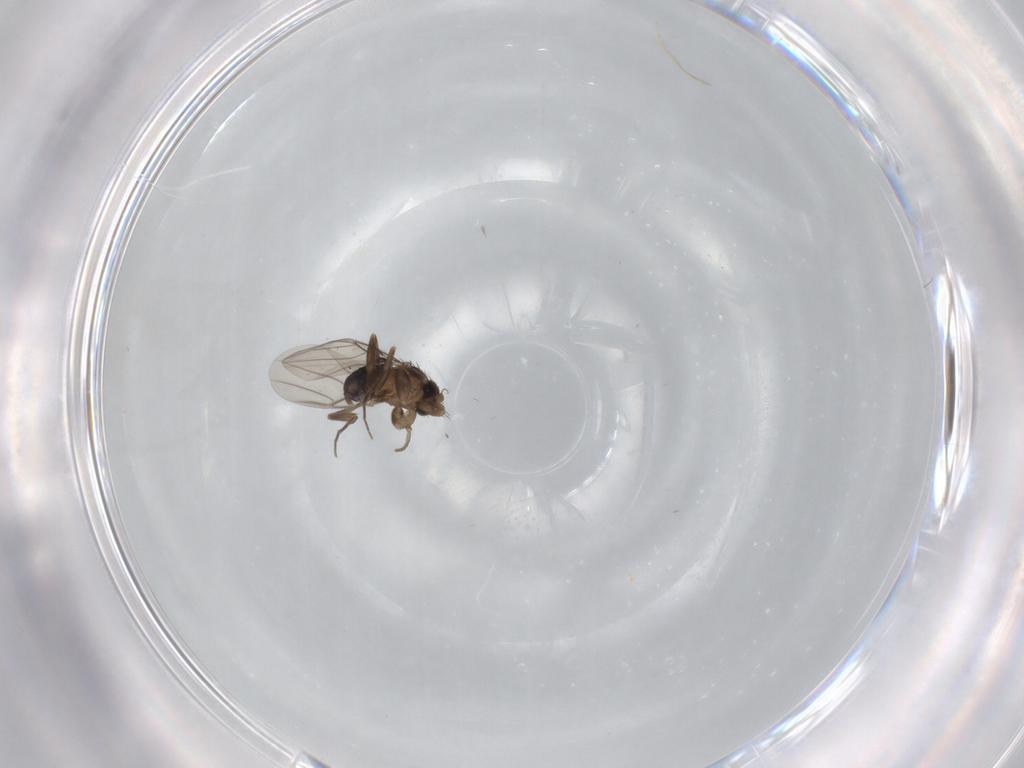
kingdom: Animalia
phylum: Arthropoda
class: Insecta
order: Diptera
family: Phoridae
